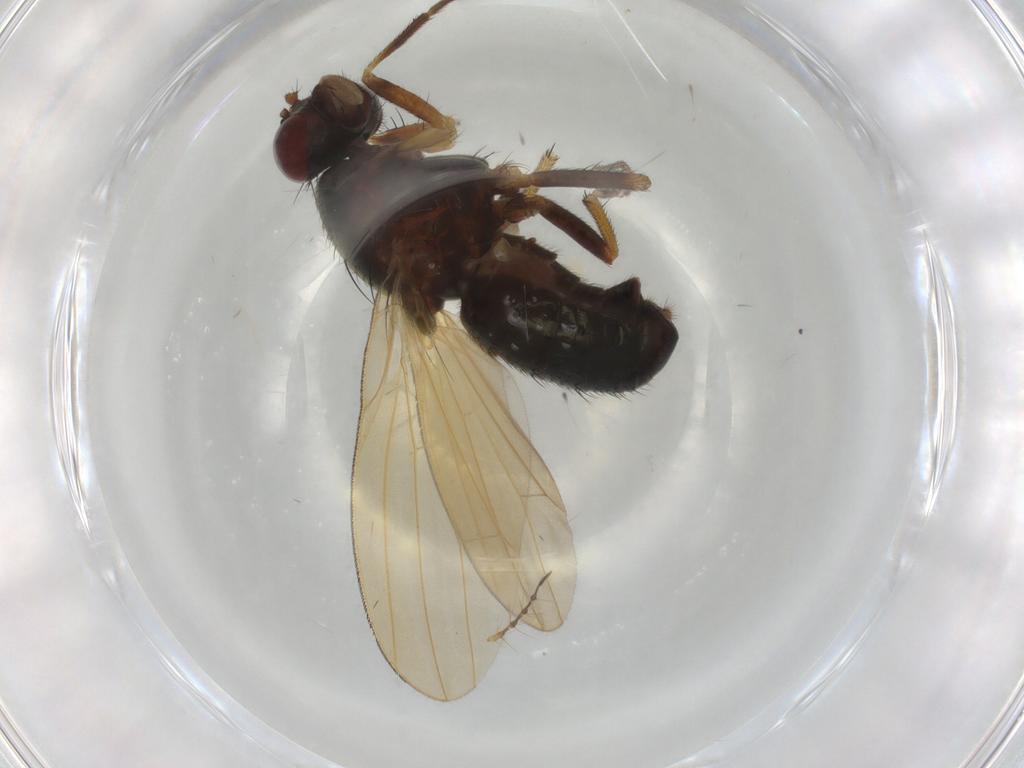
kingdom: Animalia
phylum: Arthropoda
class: Insecta
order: Diptera
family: Sciaridae
